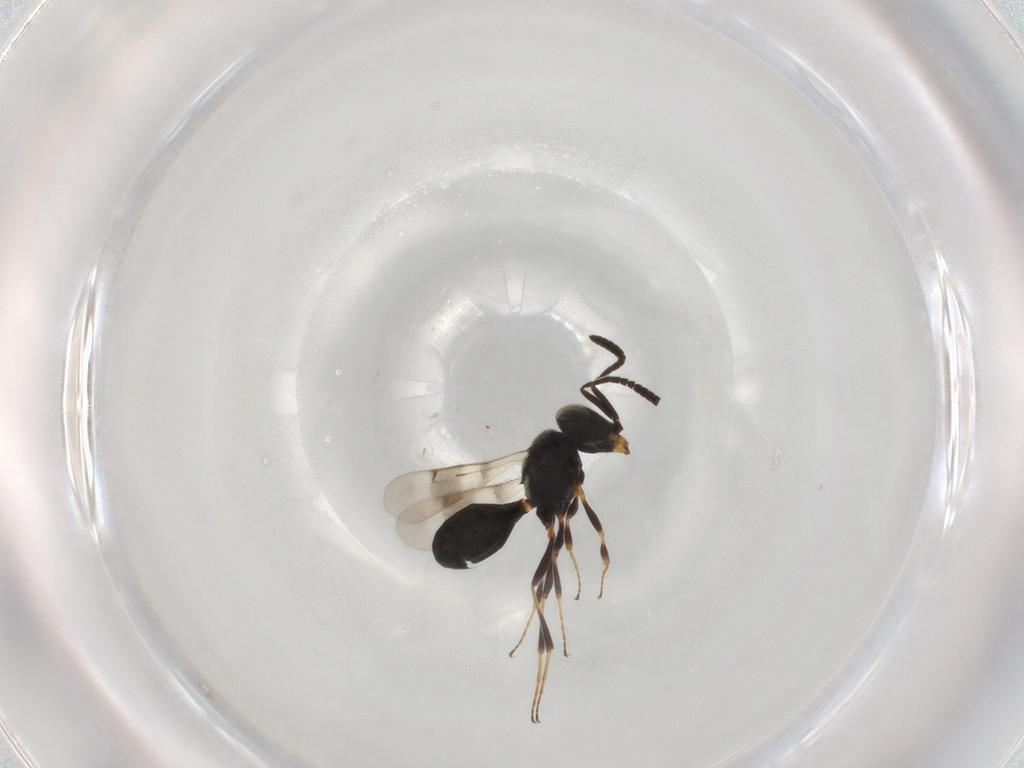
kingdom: Animalia
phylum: Arthropoda
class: Insecta
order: Hymenoptera
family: Scelionidae
